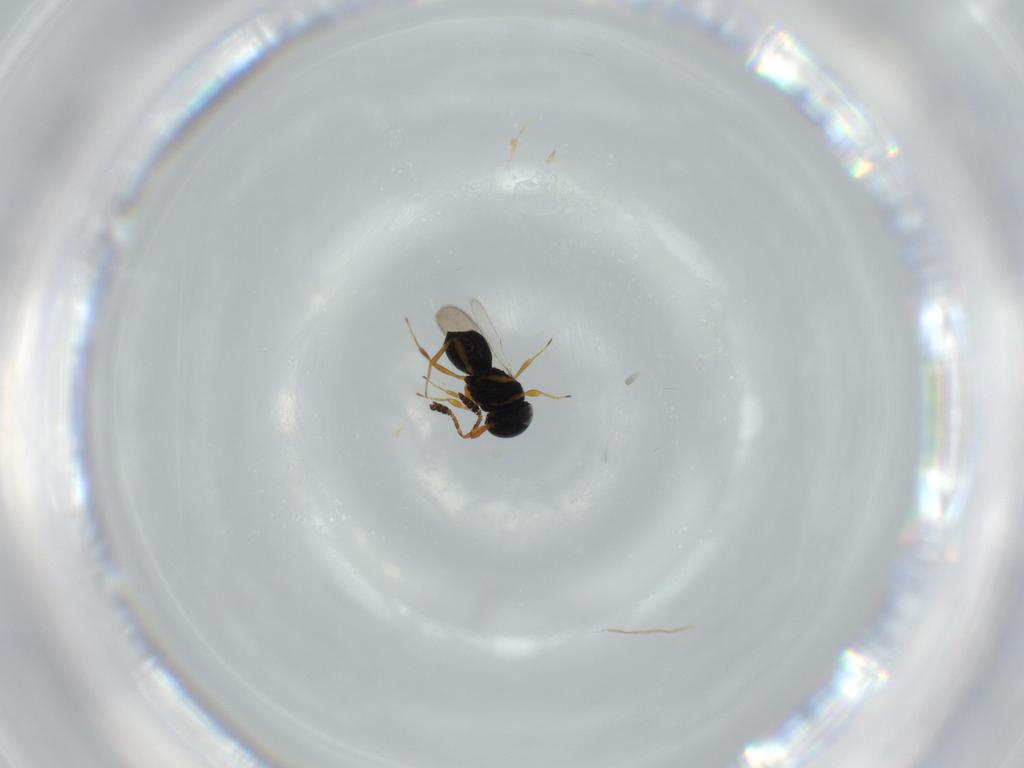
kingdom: Animalia
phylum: Arthropoda
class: Insecta
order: Hymenoptera
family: Scelionidae
